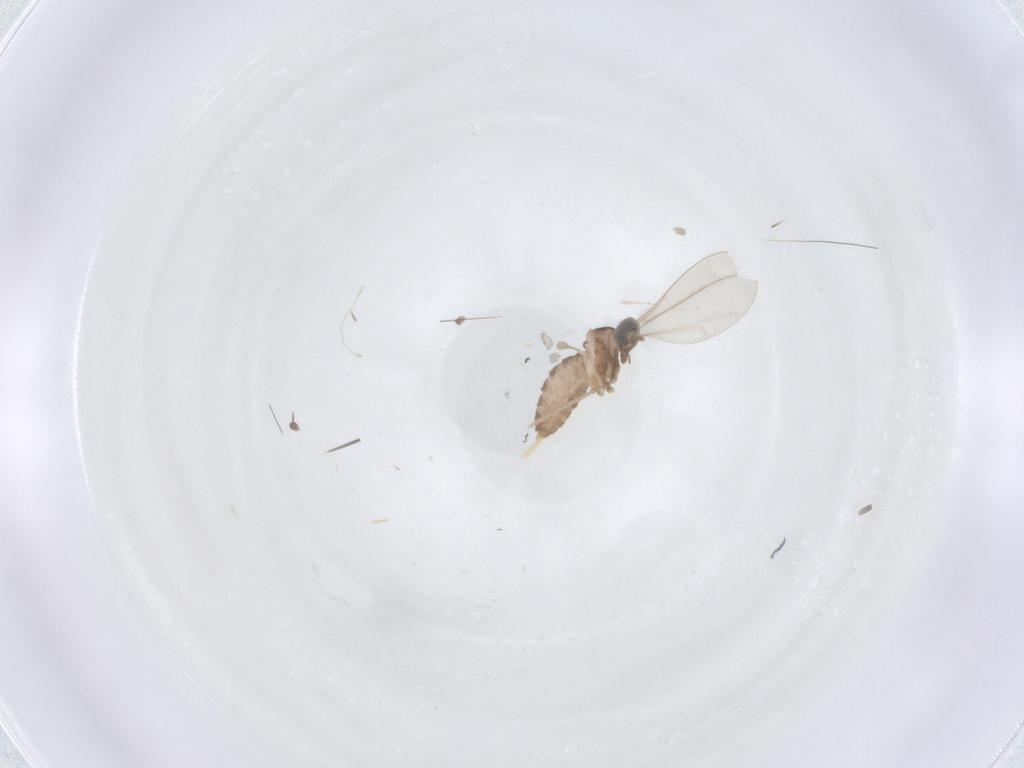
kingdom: Animalia
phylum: Arthropoda
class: Insecta
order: Diptera
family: Cecidomyiidae
